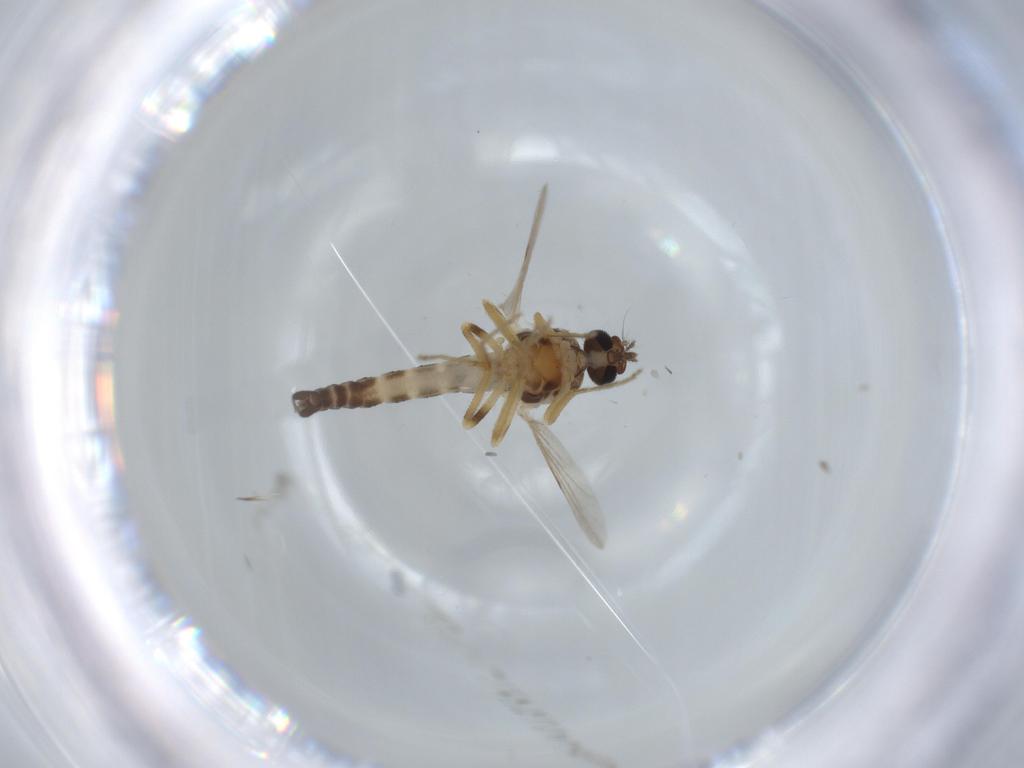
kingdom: Animalia
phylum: Arthropoda
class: Insecta
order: Diptera
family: Ceratopogonidae
